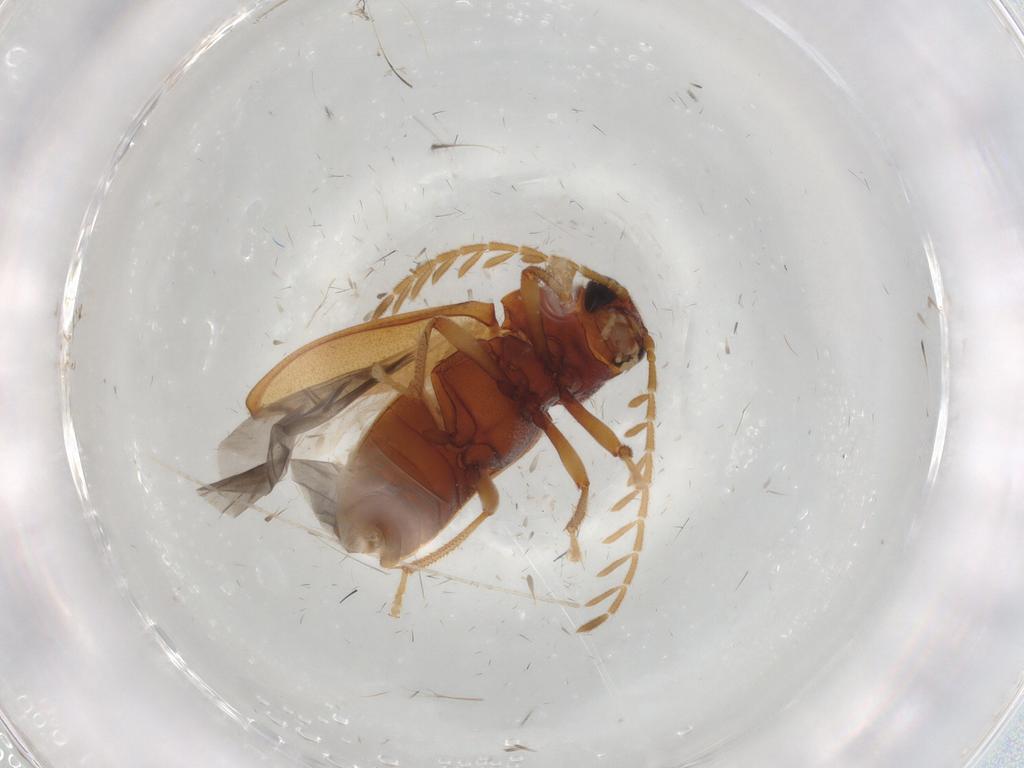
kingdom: Animalia
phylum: Arthropoda
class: Insecta
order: Coleoptera
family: Ptilodactylidae
